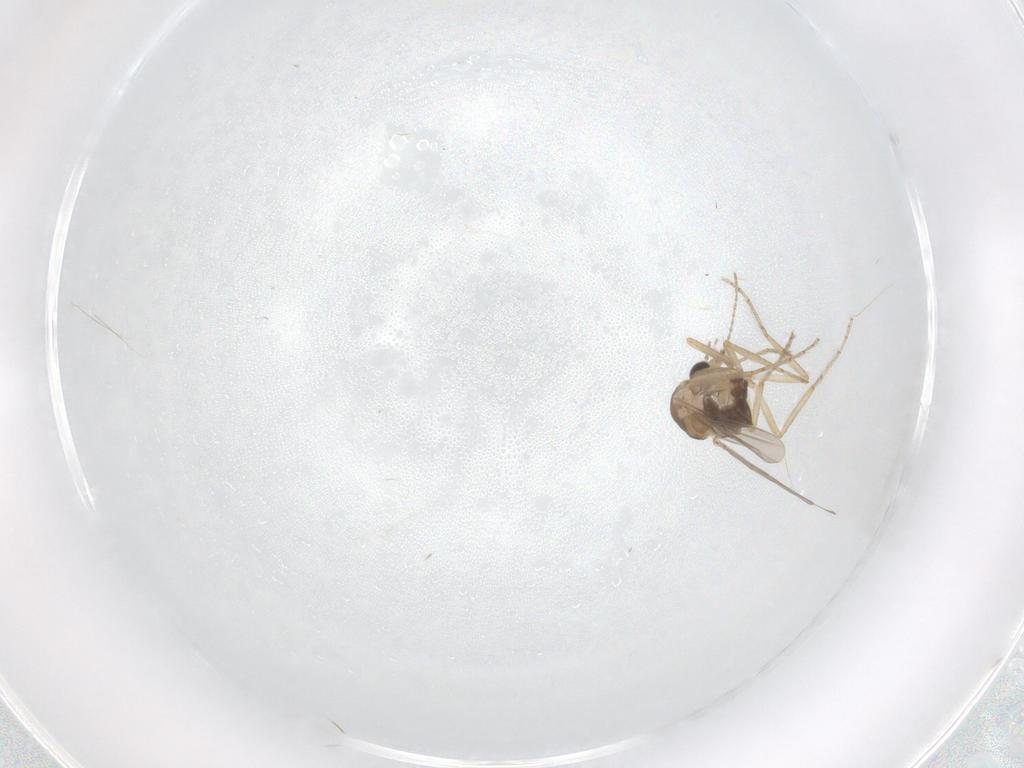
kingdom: Animalia
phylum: Arthropoda
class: Insecta
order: Diptera
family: Ceratopogonidae
